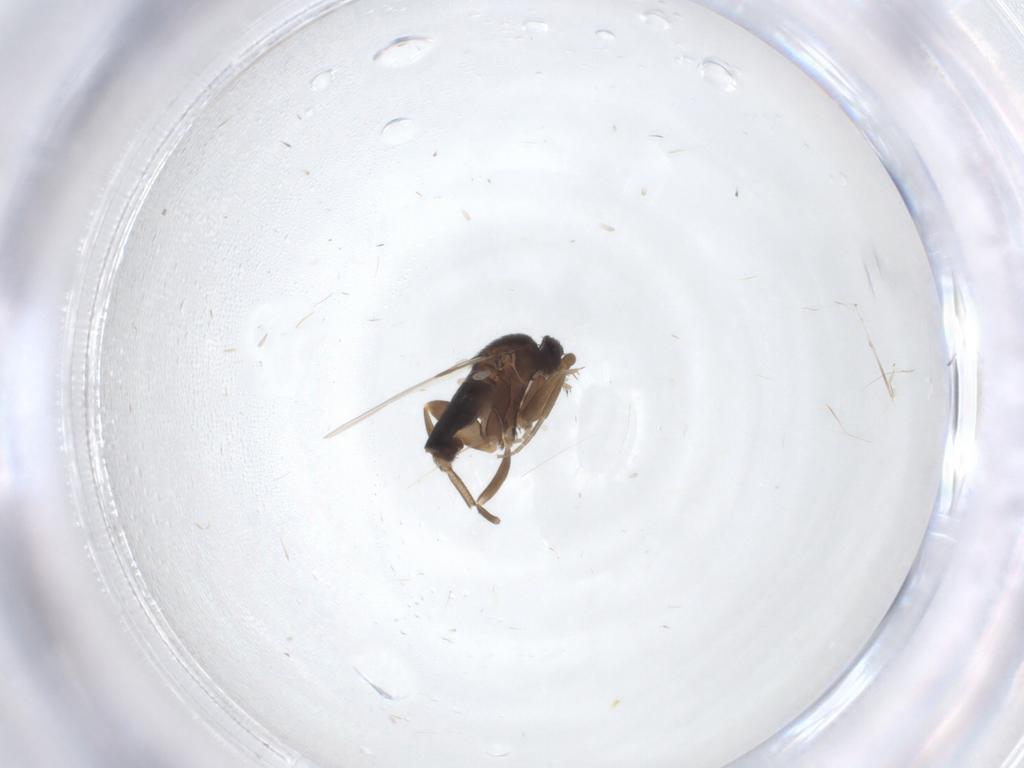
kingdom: Animalia
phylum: Arthropoda
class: Insecta
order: Diptera
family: Phoridae
